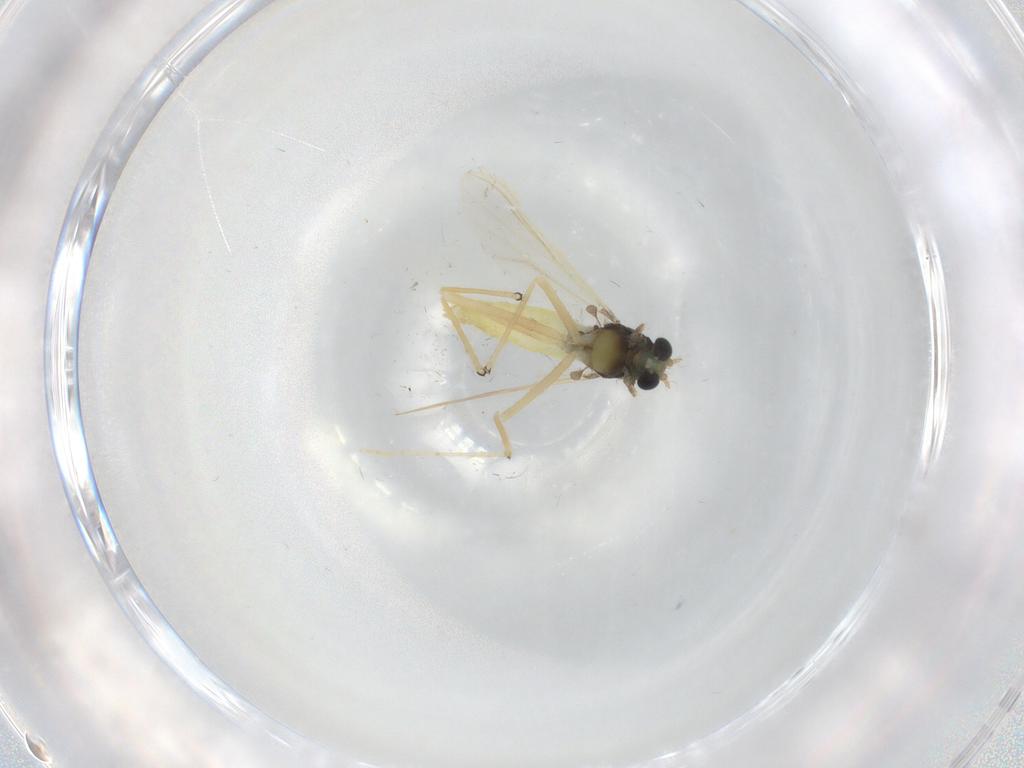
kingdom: Animalia
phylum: Arthropoda
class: Insecta
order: Diptera
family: Chironomidae
